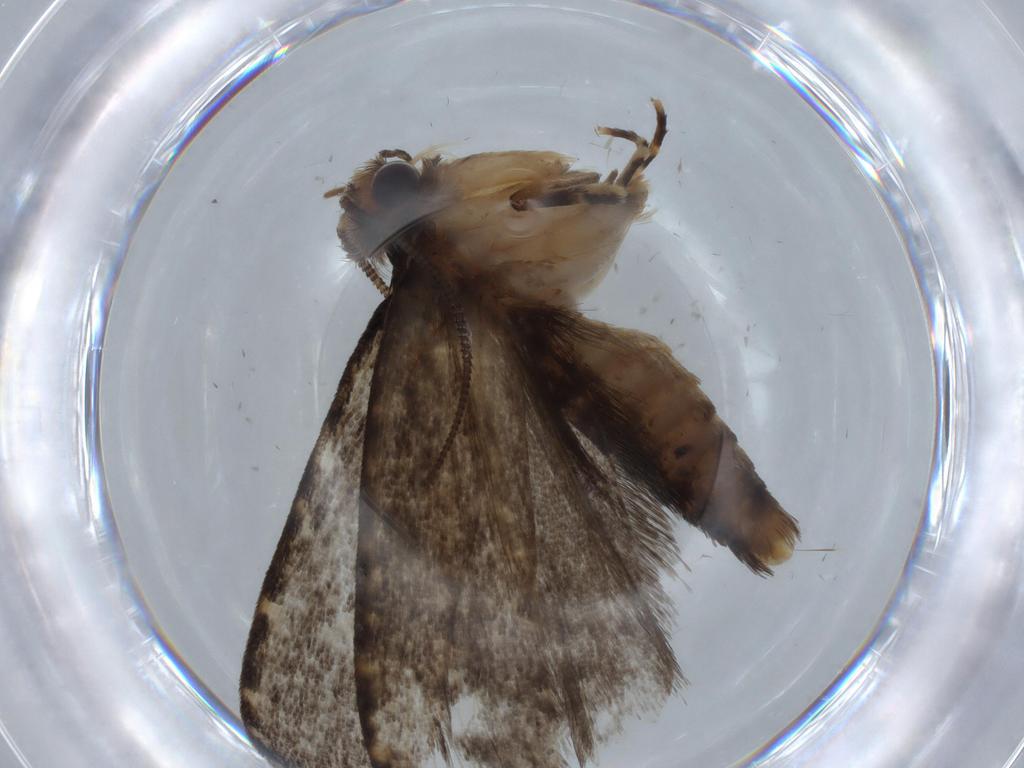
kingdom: Animalia
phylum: Arthropoda
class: Insecta
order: Lepidoptera
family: Tineidae
